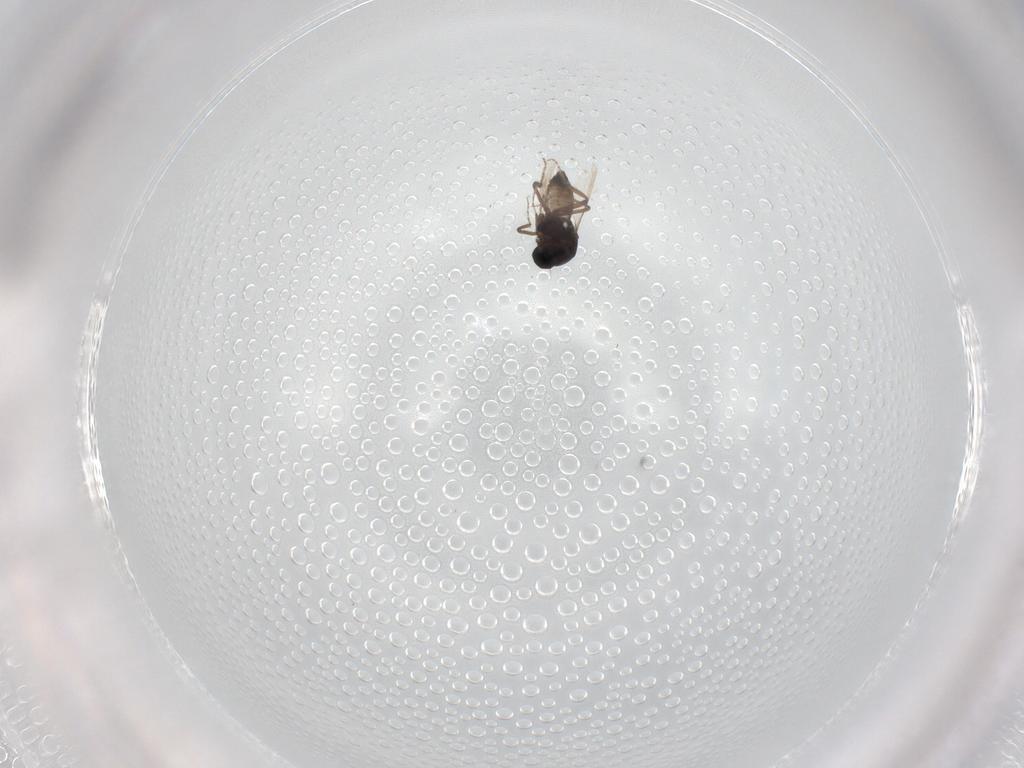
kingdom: Animalia
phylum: Arthropoda
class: Insecta
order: Diptera
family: Ceratopogonidae
